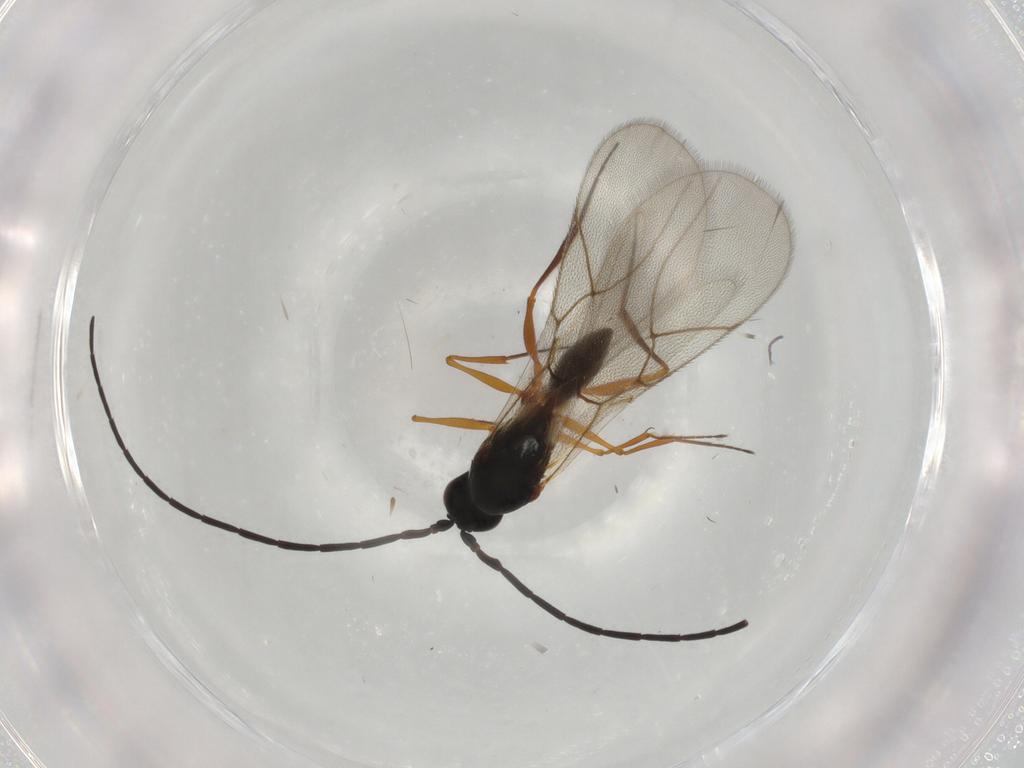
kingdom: Animalia
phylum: Arthropoda
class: Insecta
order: Hymenoptera
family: Figitidae
